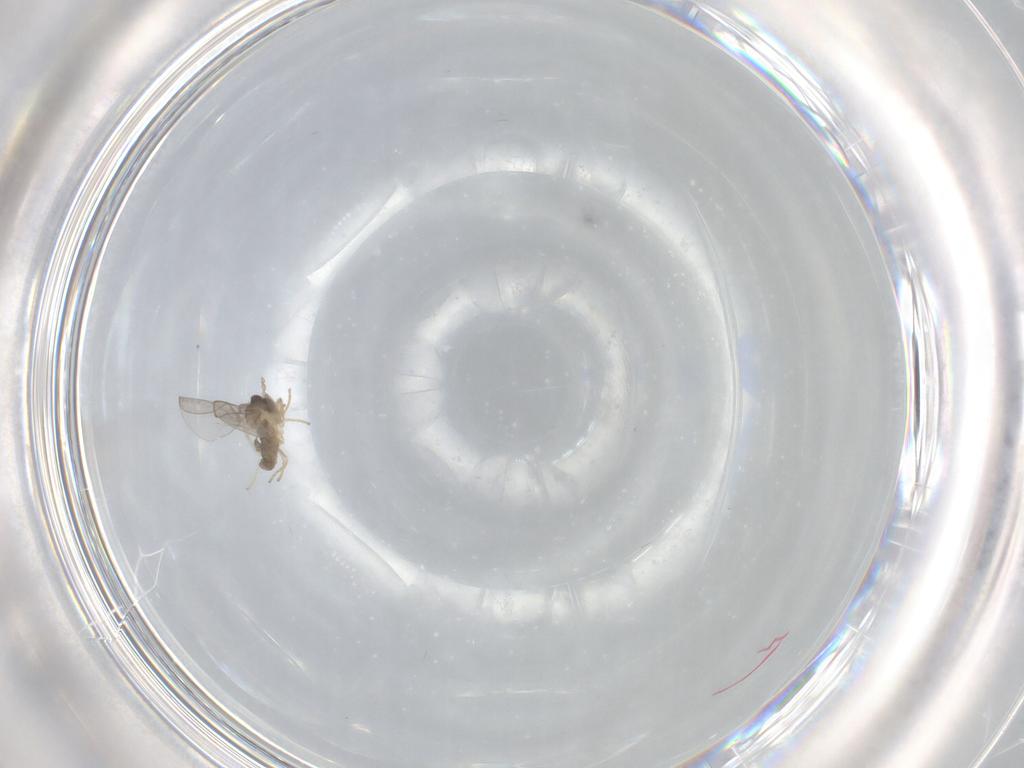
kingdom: Animalia
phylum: Arthropoda
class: Insecta
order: Diptera
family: Cecidomyiidae
